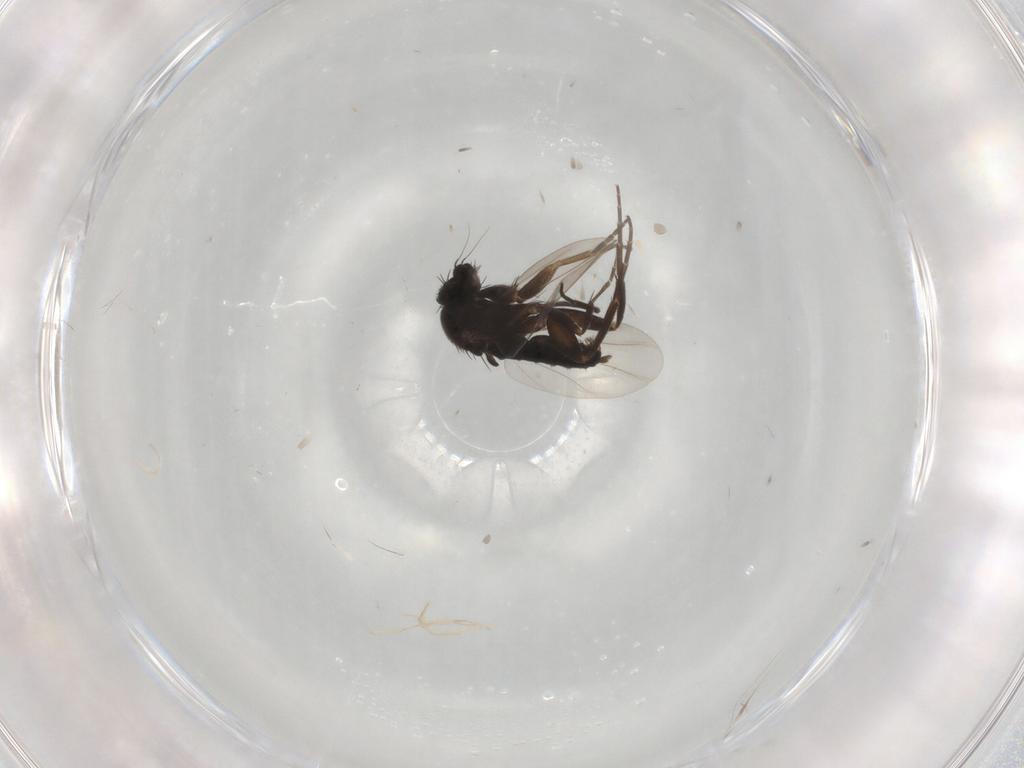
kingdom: Animalia
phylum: Arthropoda
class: Insecta
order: Diptera
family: Phoridae
